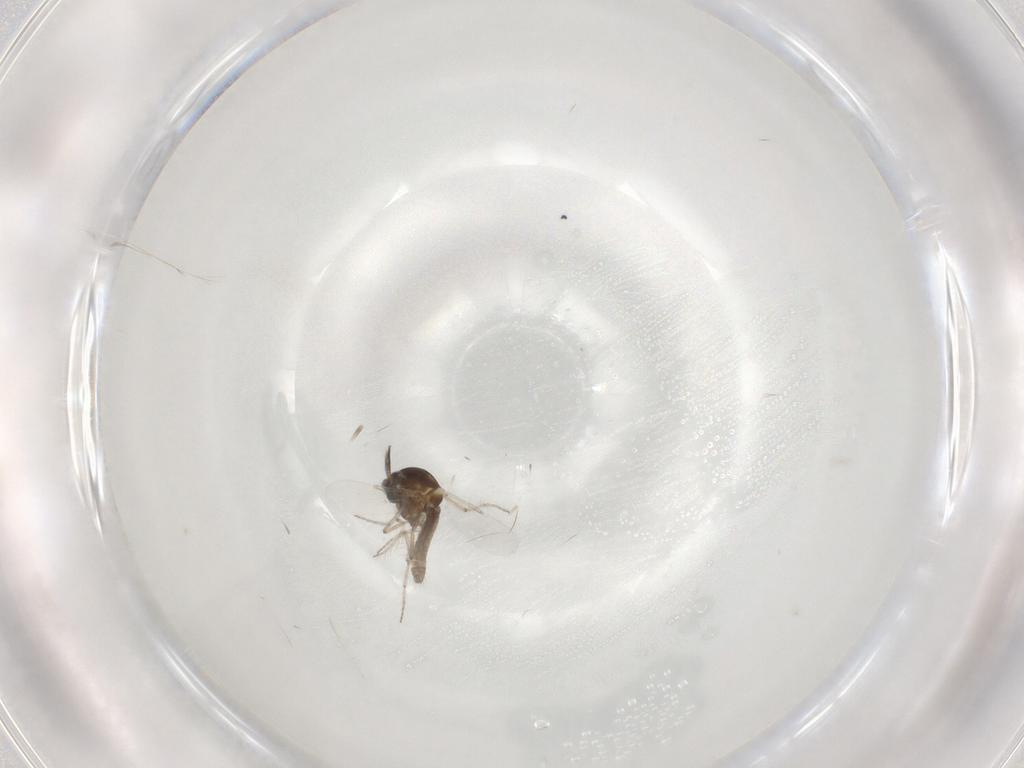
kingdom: Animalia
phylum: Arthropoda
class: Insecta
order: Diptera
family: Ceratopogonidae
